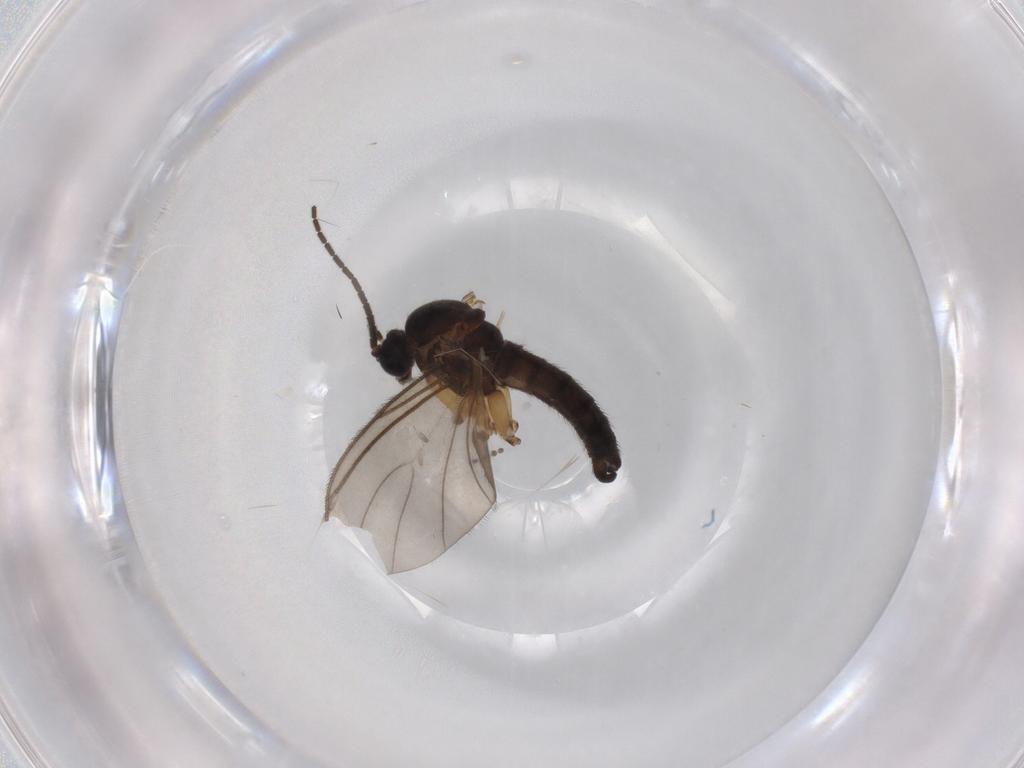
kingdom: Animalia
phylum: Arthropoda
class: Insecta
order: Diptera
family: Sciaridae
